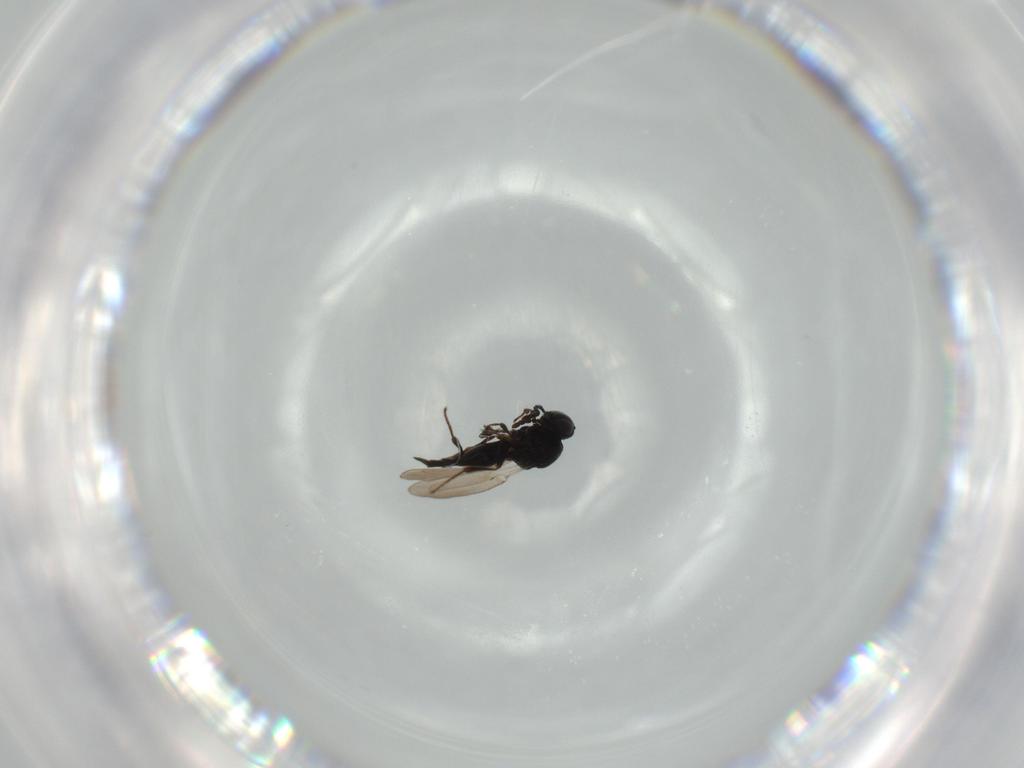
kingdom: Animalia
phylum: Arthropoda
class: Insecta
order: Hymenoptera
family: Platygastridae
